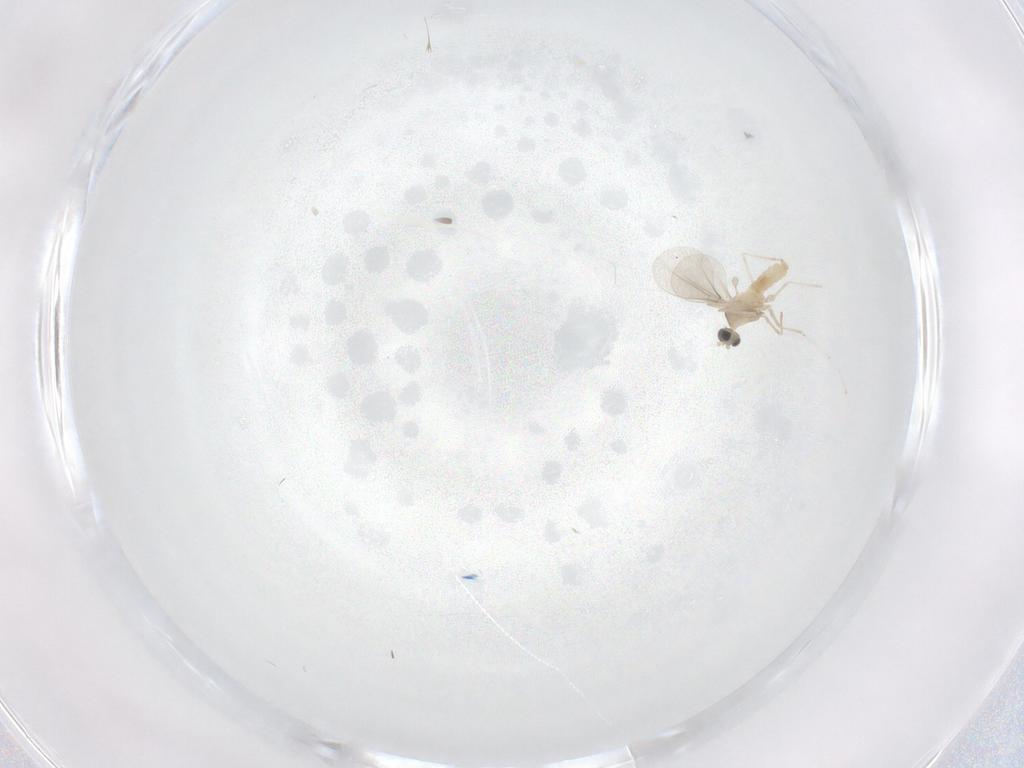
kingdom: Animalia
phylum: Arthropoda
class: Insecta
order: Diptera
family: Cecidomyiidae
